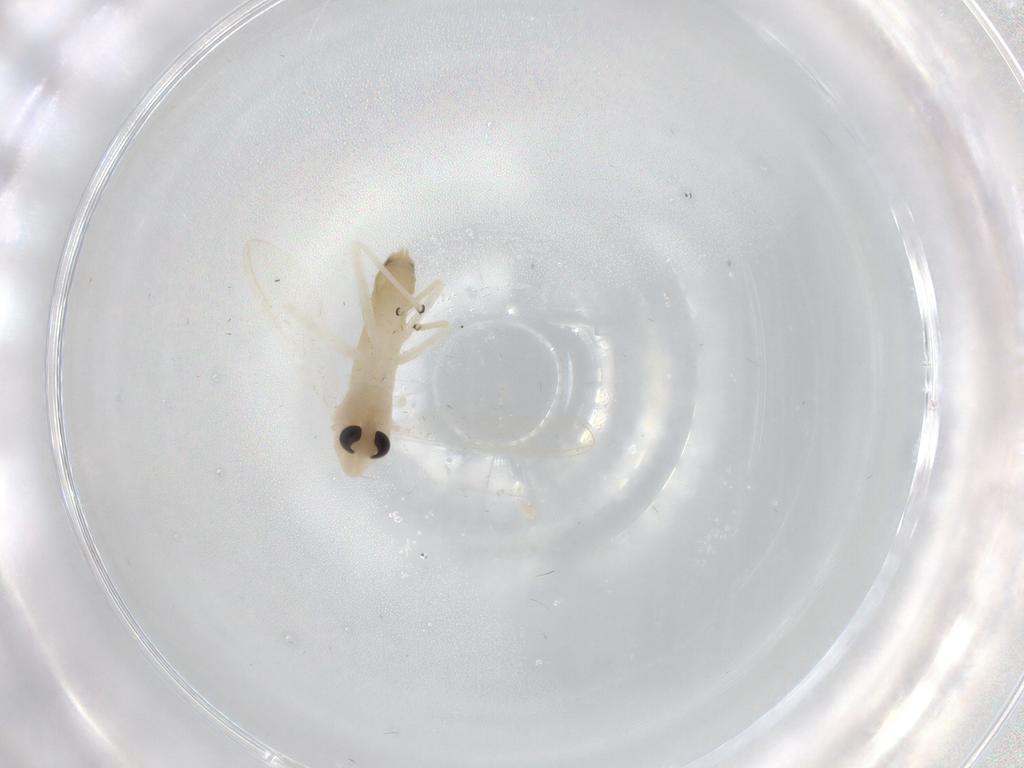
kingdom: Animalia
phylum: Arthropoda
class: Insecta
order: Diptera
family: Chironomidae
